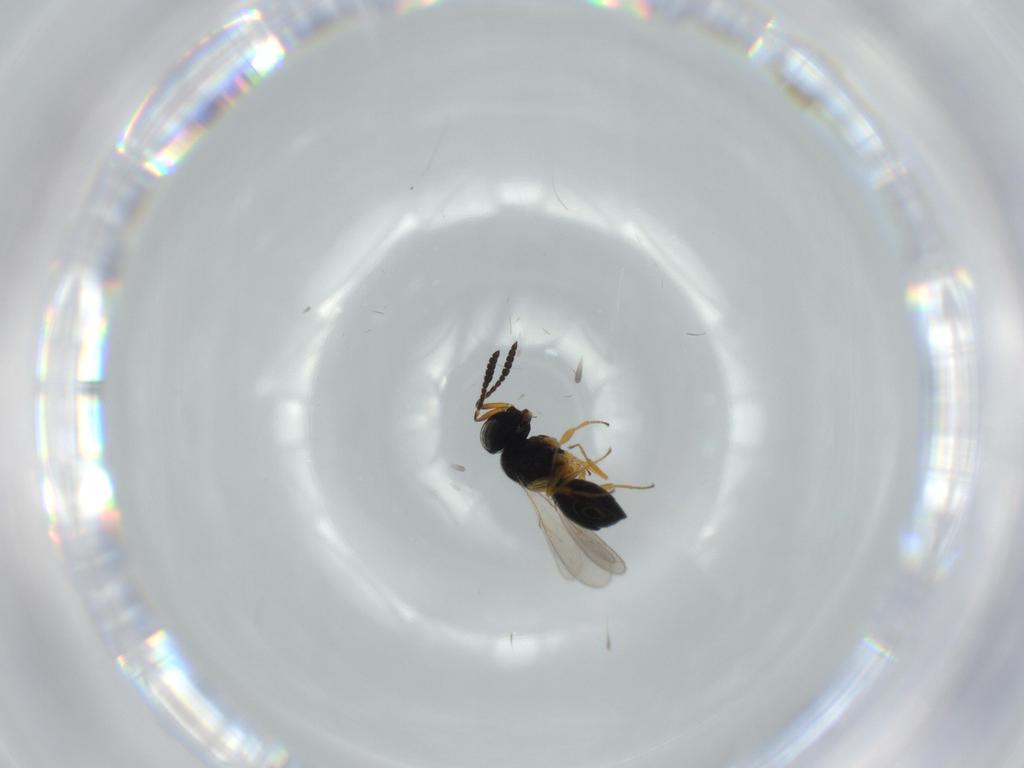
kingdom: Animalia
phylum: Arthropoda
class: Insecta
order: Hymenoptera
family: Scelionidae
